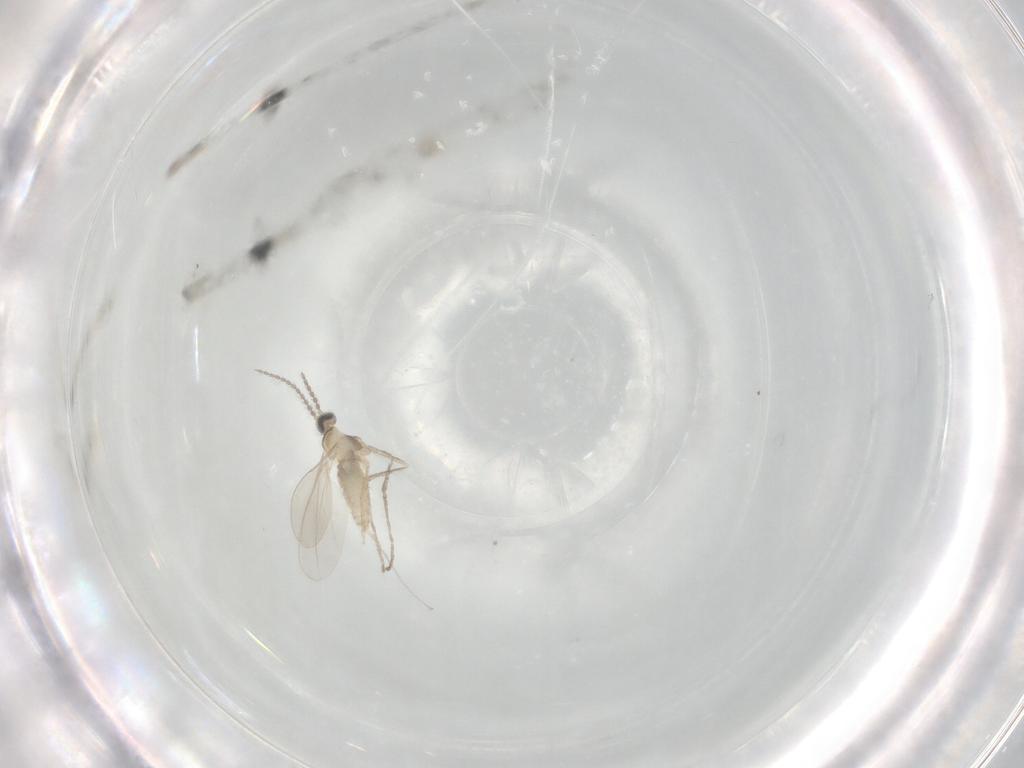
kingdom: Animalia
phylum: Arthropoda
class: Insecta
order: Diptera
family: Cecidomyiidae
